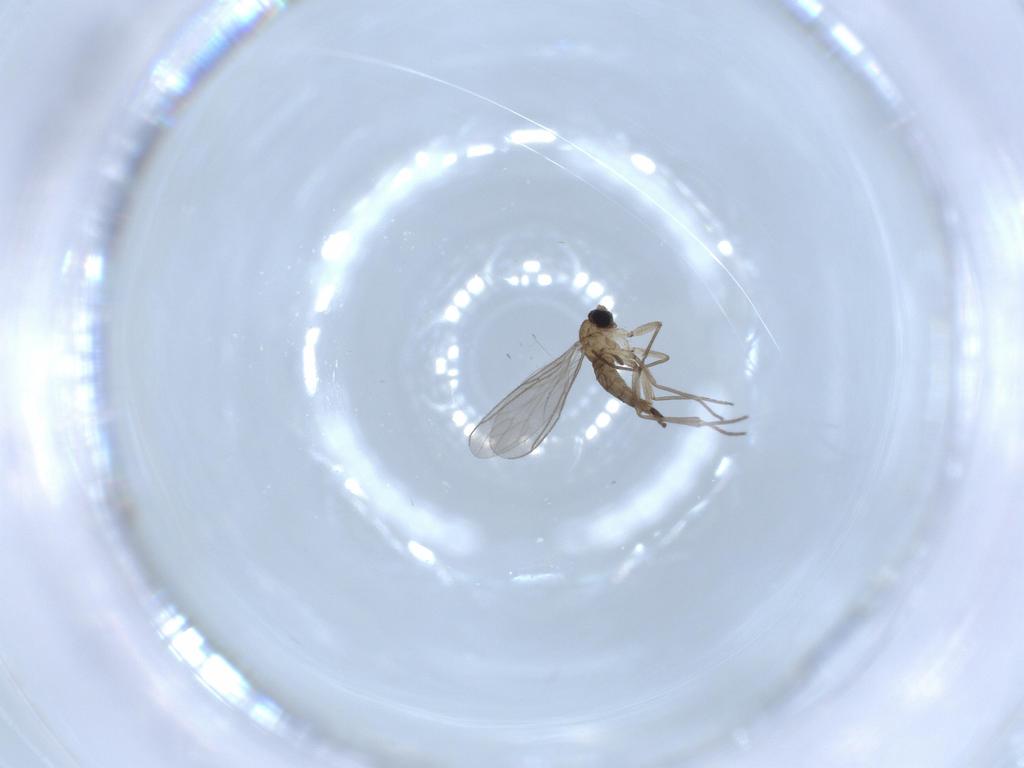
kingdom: Animalia
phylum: Arthropoda
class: Insecta
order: Diptera
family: Sciaridae
